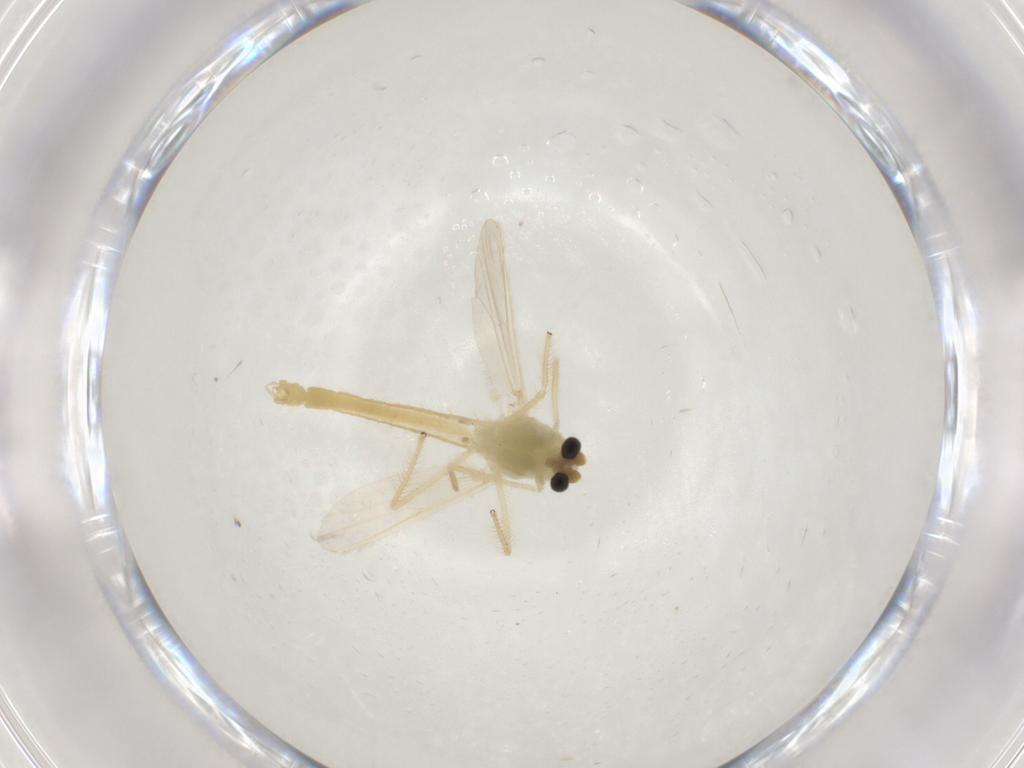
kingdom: Animalia
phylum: Arthropoda
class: Insecta
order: Diptera
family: Chironomidae
